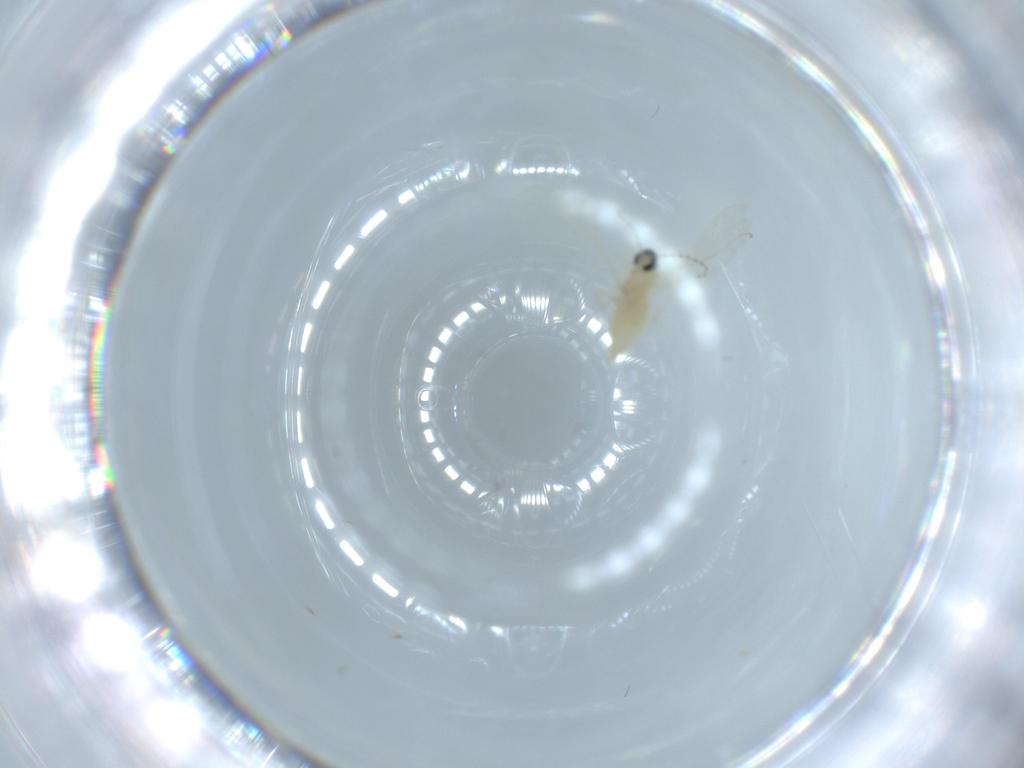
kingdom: Animalia
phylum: Arthropoda
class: Insecta
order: Diptera
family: Cecidomyiidae
